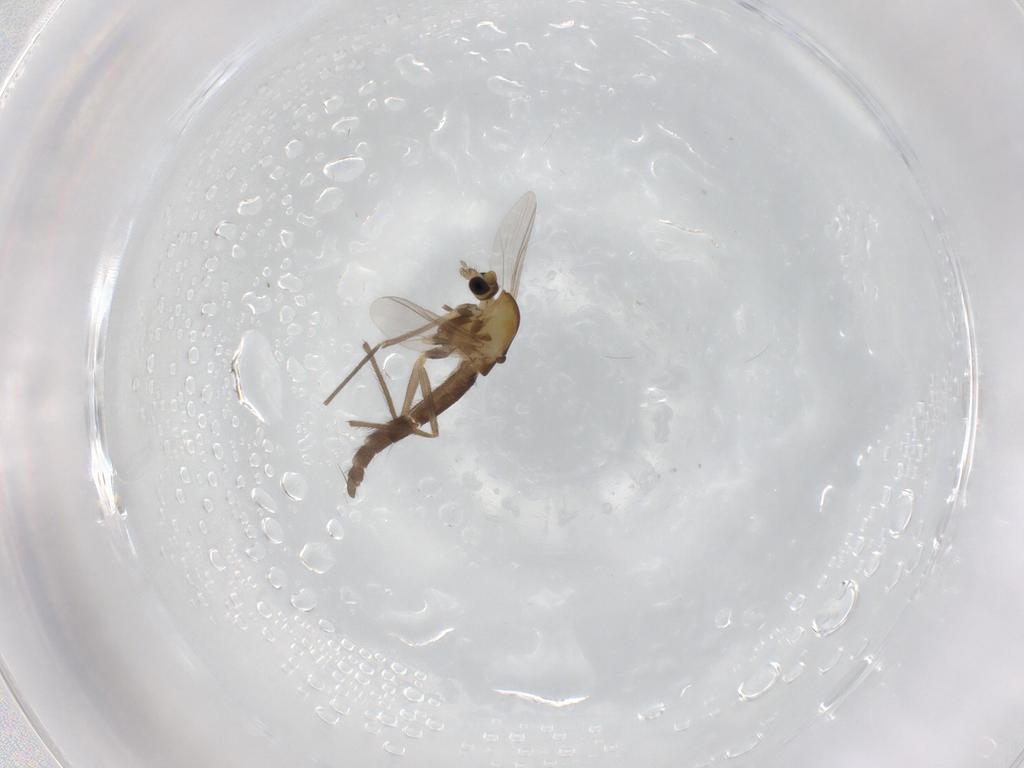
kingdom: Animalia
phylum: Arthropoda
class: Insecta
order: Diptera
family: Chironomidae
